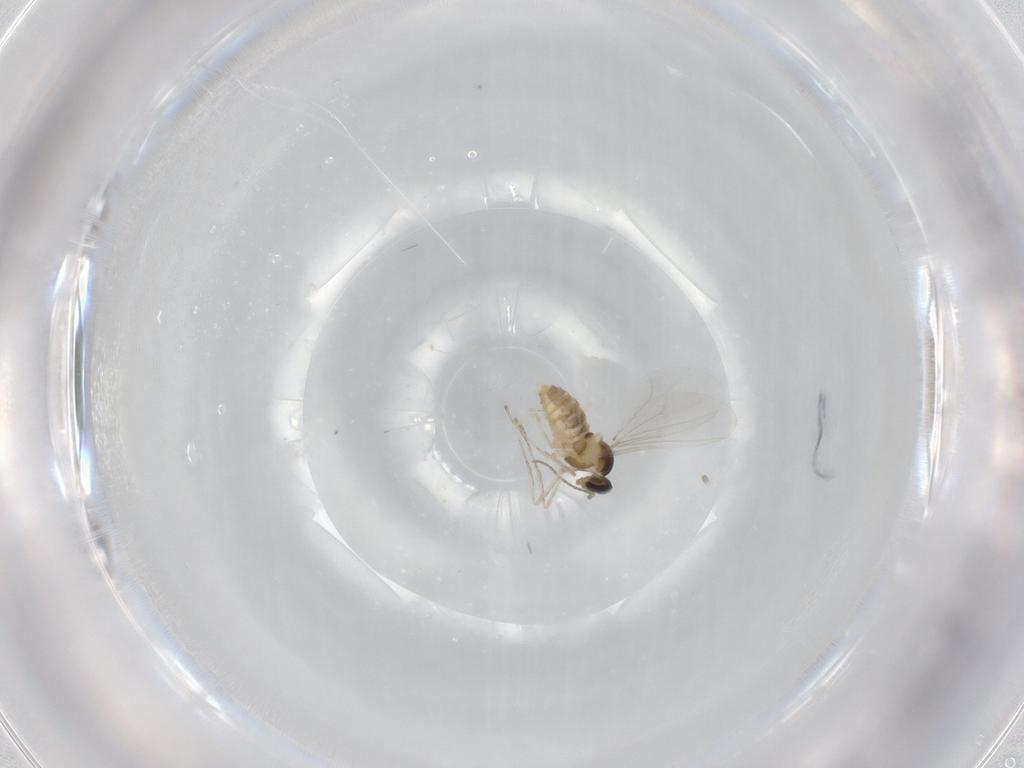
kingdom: Animalia
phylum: Arthropoda
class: Insecta
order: Diptera
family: Cecidomyiidae
